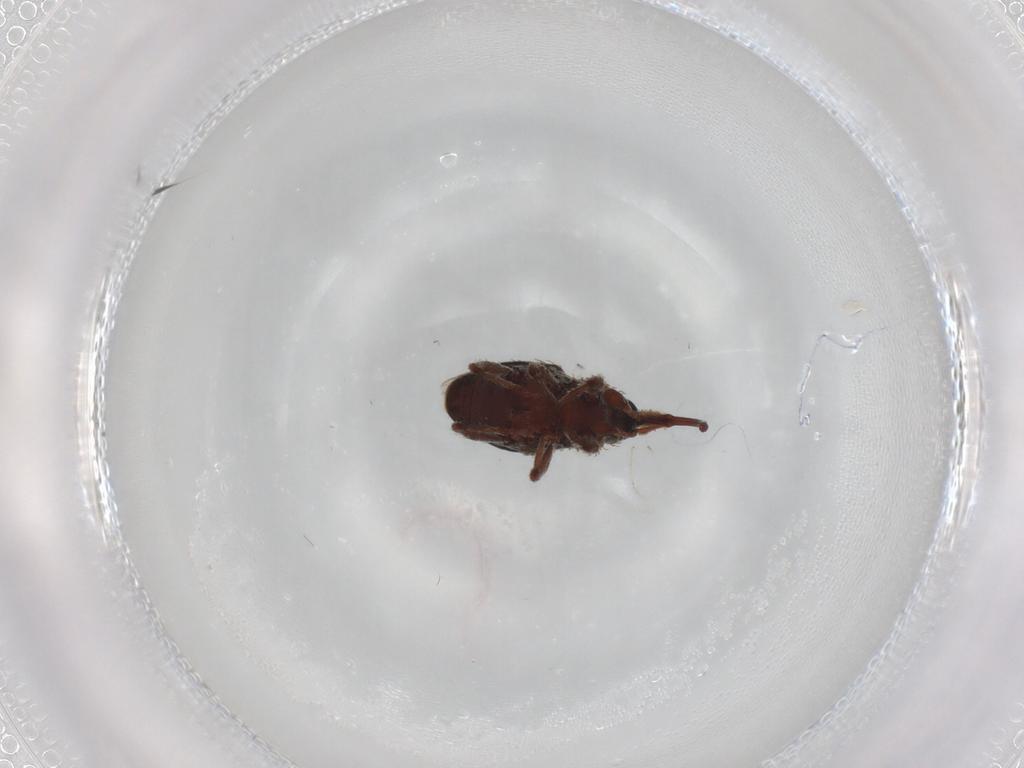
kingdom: Animalia
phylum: Arthropoda
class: Insecta
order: Coleoptera
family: Curculionidae
